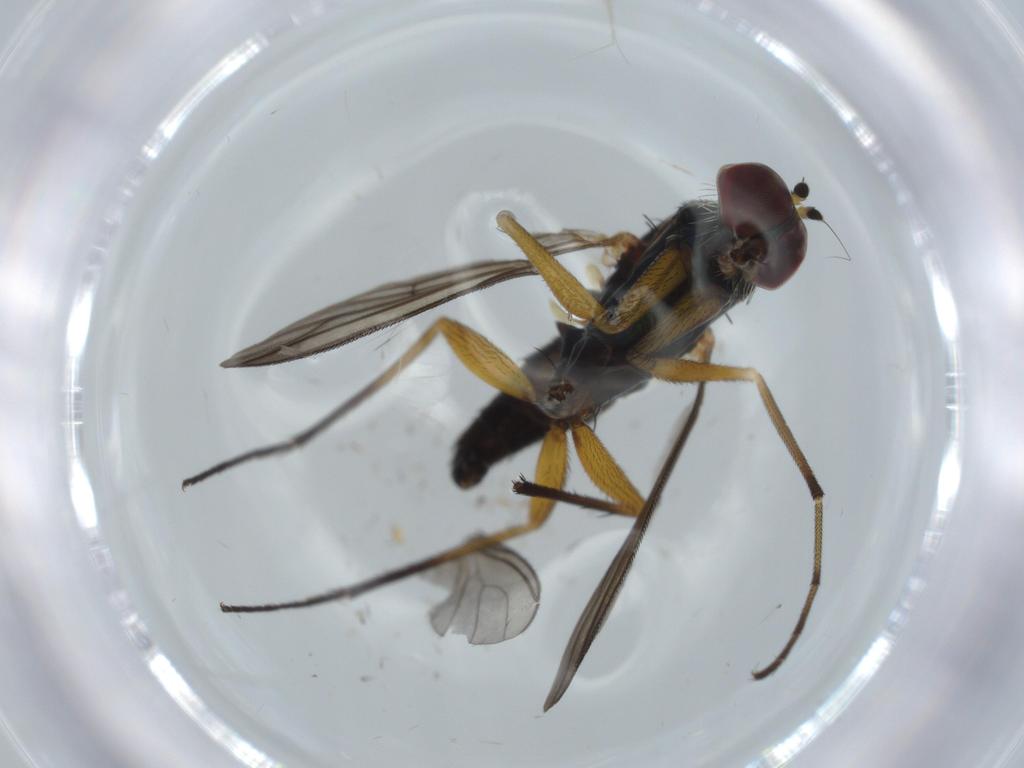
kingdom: Animalia
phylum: Arthropoda
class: Insecta
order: Diptera
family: Dolichopodidae
